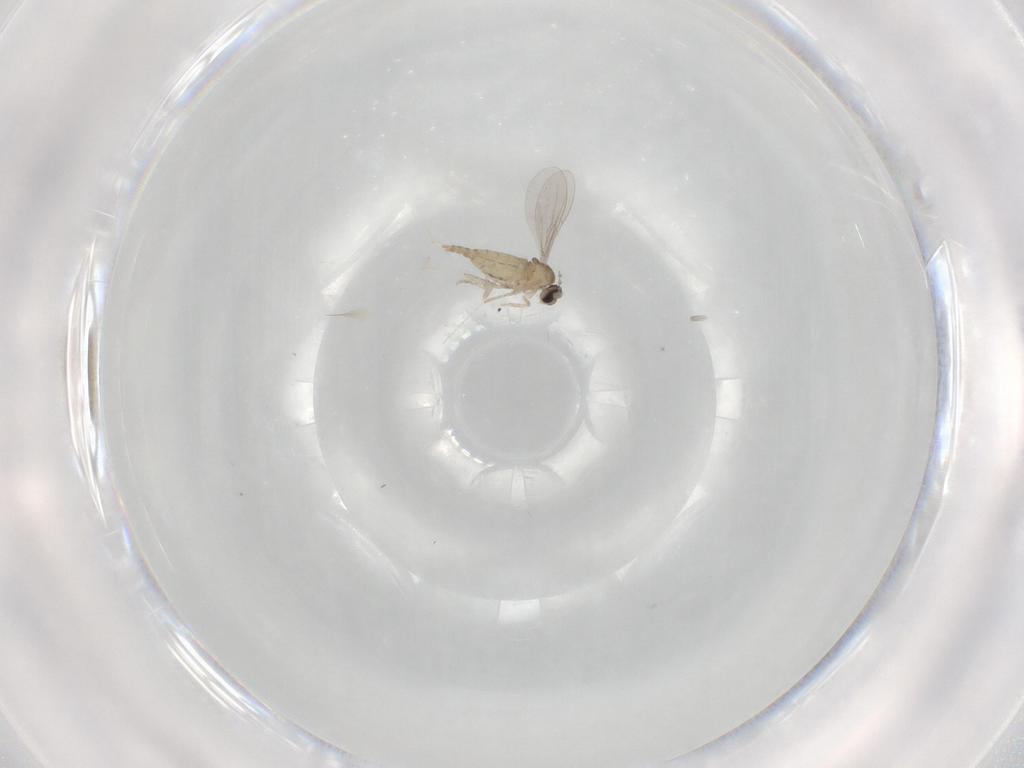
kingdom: Animalia
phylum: Arthropoda
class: Insecta
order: Diptera
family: Cecidomyiidae
